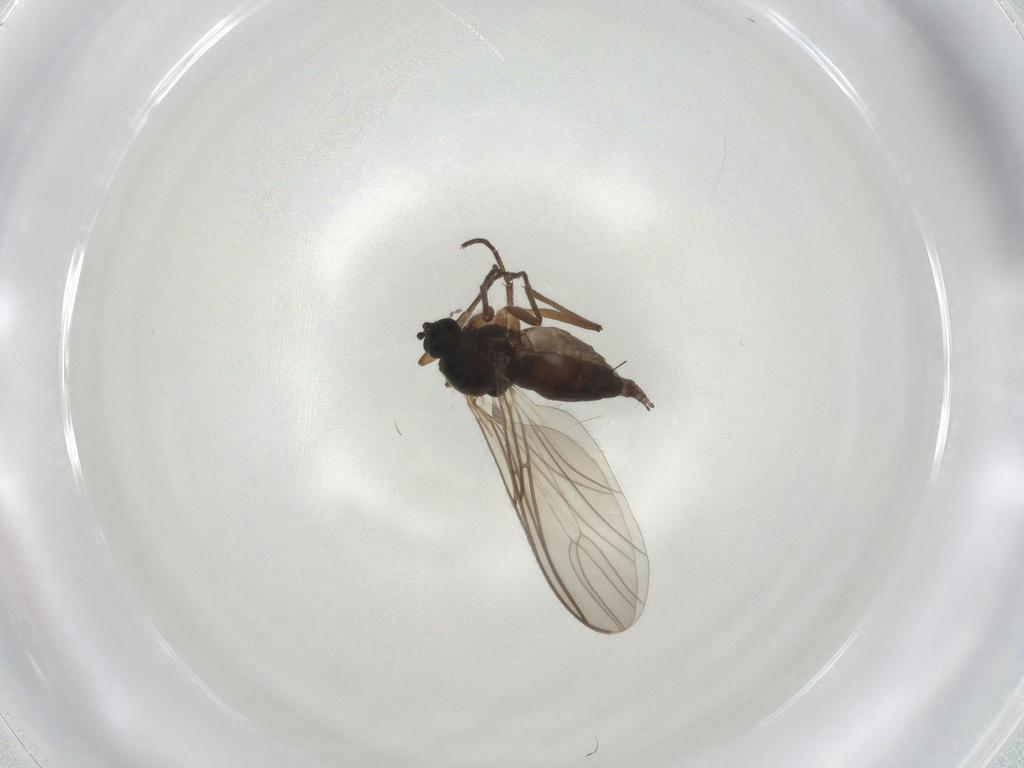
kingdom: Animalia
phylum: Arthropoda
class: Insecta
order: Diptera
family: Sciaridae
